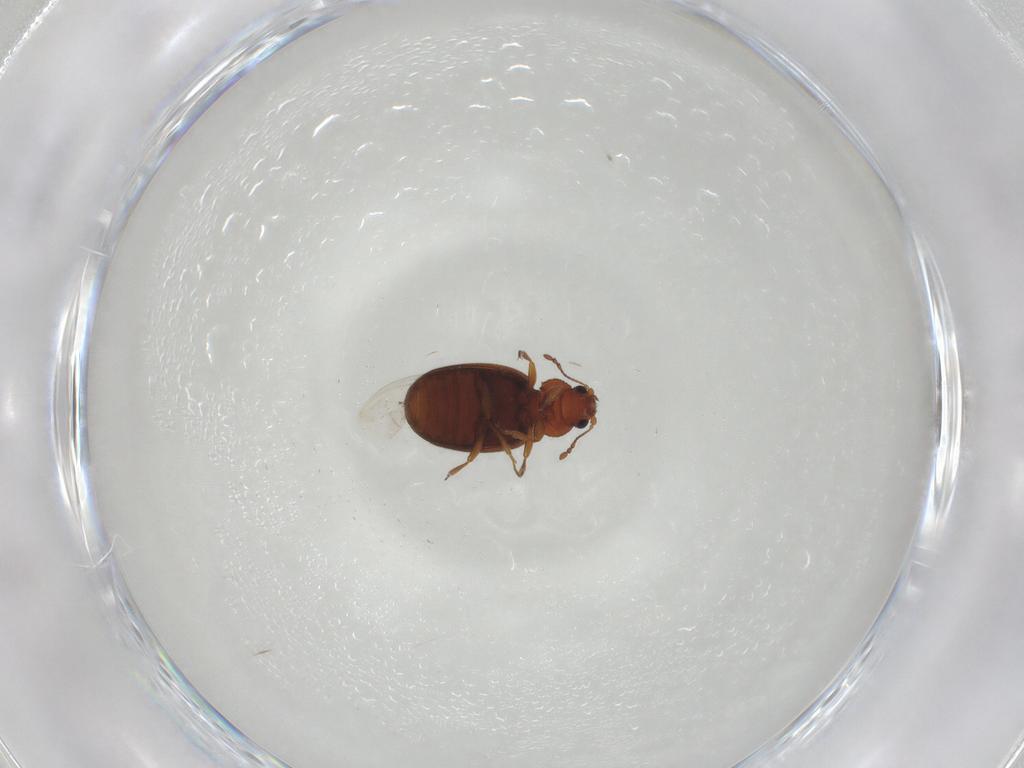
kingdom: Animalia
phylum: Arthropoda
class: Insecta
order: Coleoptera
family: Latridiidae
